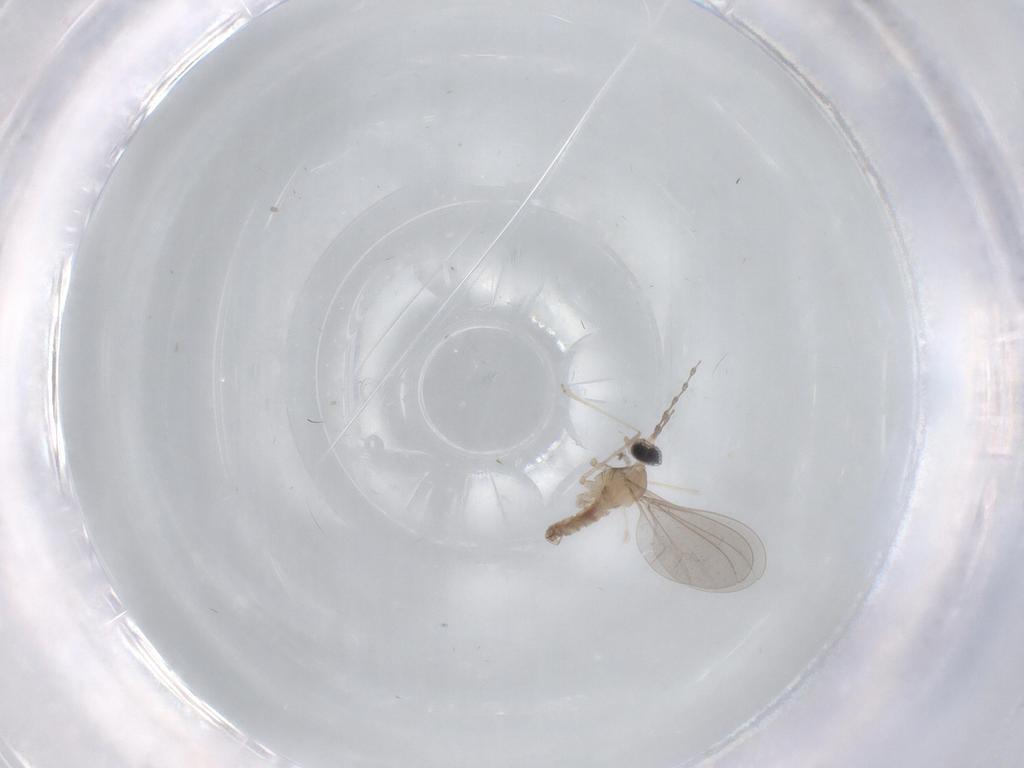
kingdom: Animalia
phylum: Arthropoda
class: Insecta
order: Diptera
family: Cecidomyiidae
